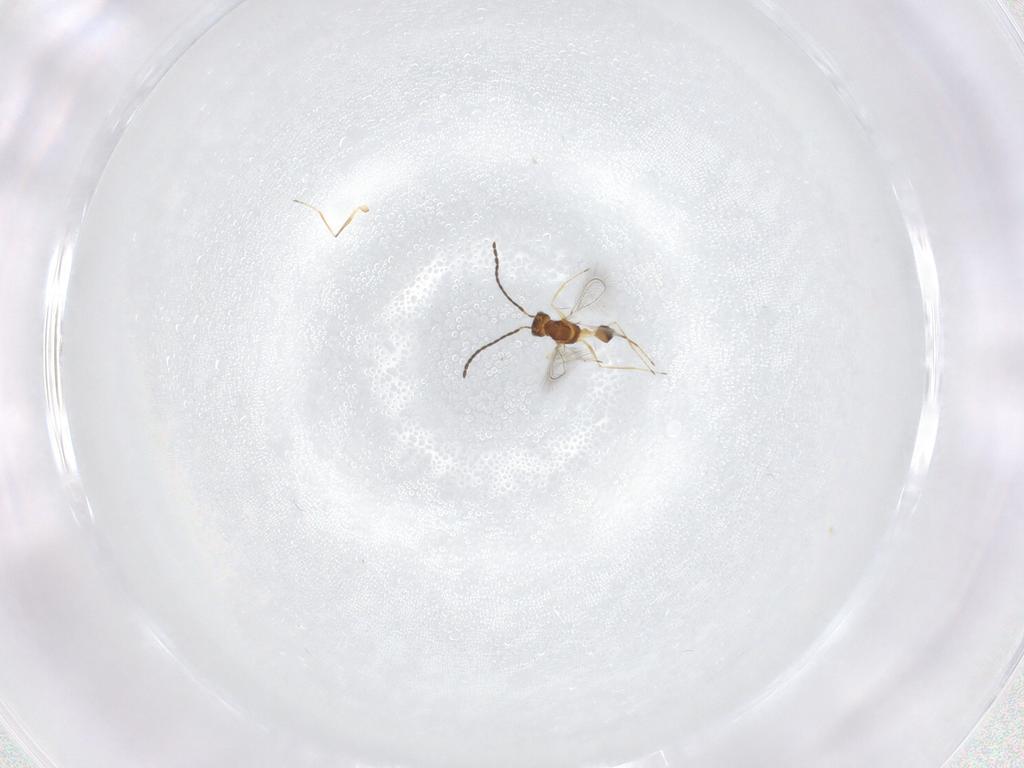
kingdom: Animalia
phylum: Arthropoda
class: Insecta
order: Hymenoptera
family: Mymaridae
